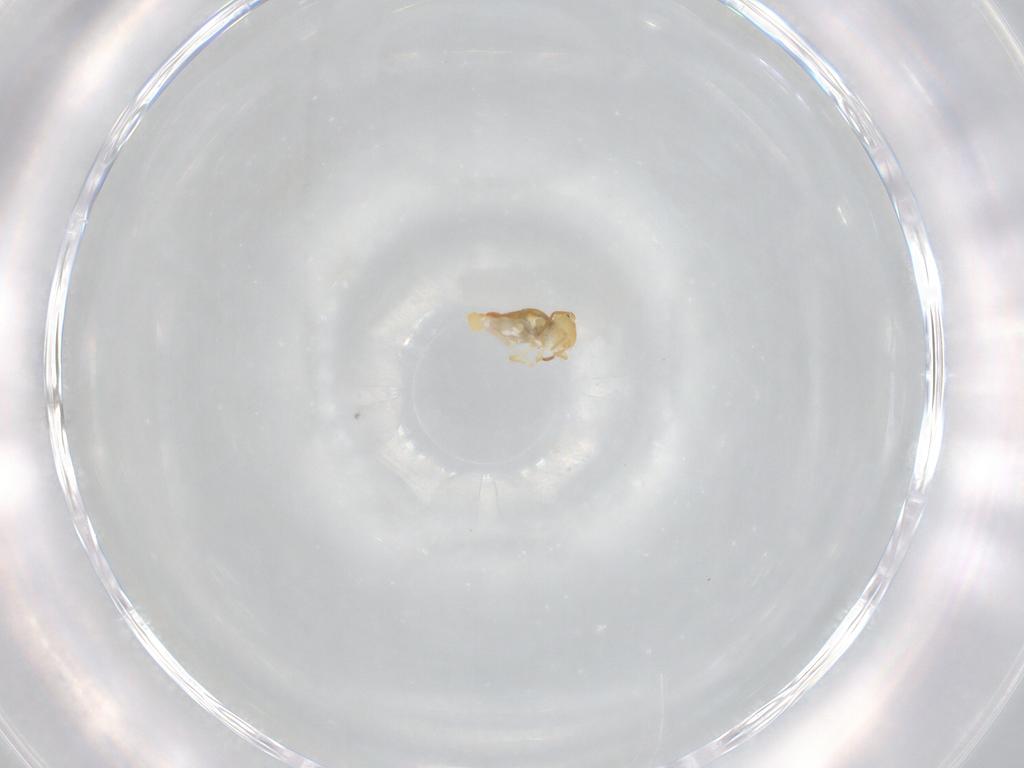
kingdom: Animalia
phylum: Arthropoda
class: Collembola
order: Symphypleona
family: Bourletiellidae
